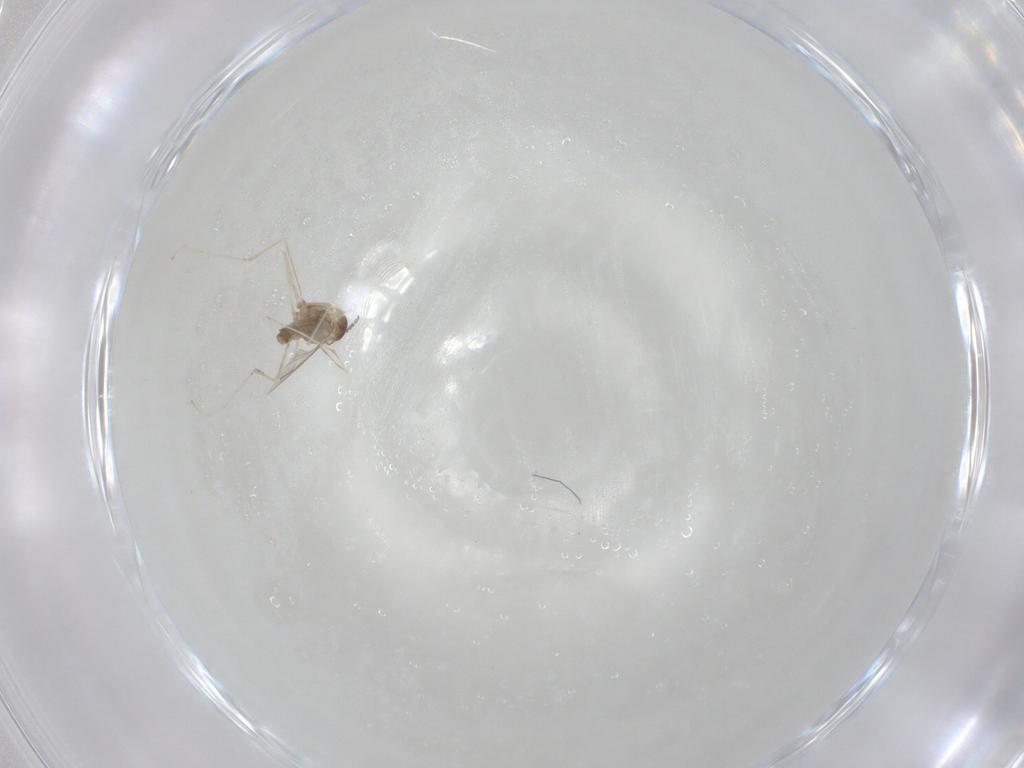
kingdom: Animalia
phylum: Arthropoda
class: Insecta
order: Diptera
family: Cecidomyiidae
